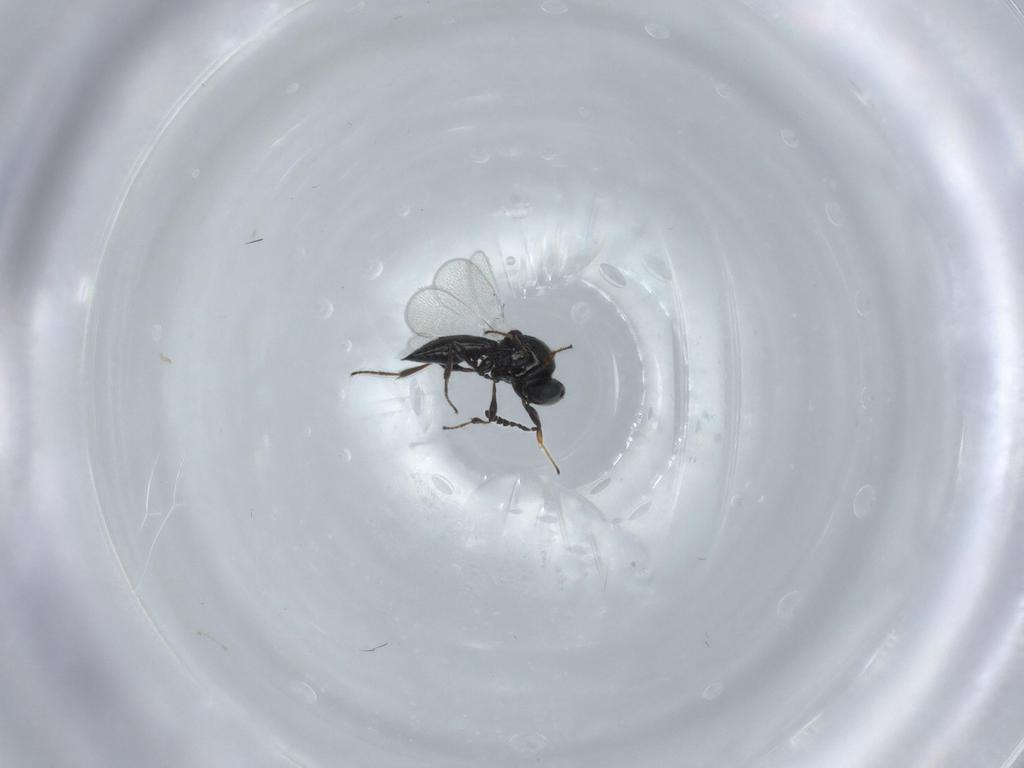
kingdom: Animalia
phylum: Arthropoda
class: Insecta
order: Hymenoptera
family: Platygastridae
